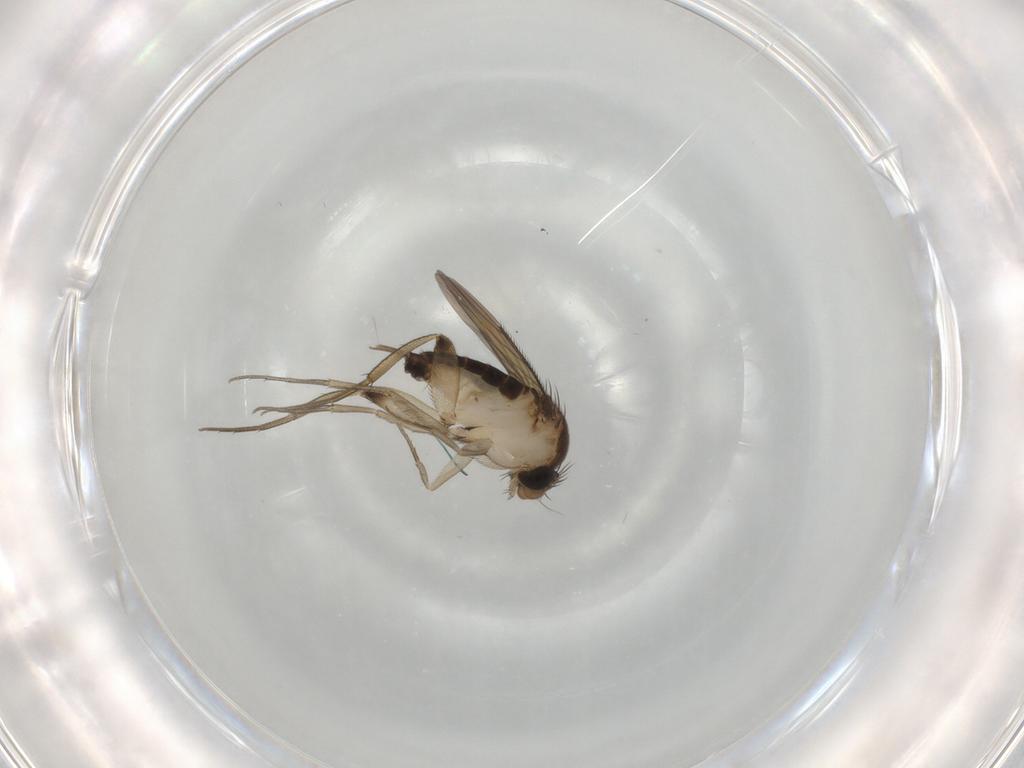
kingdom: Animalia
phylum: Arthropoda
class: Insecta
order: Diptera
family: Phoridae
